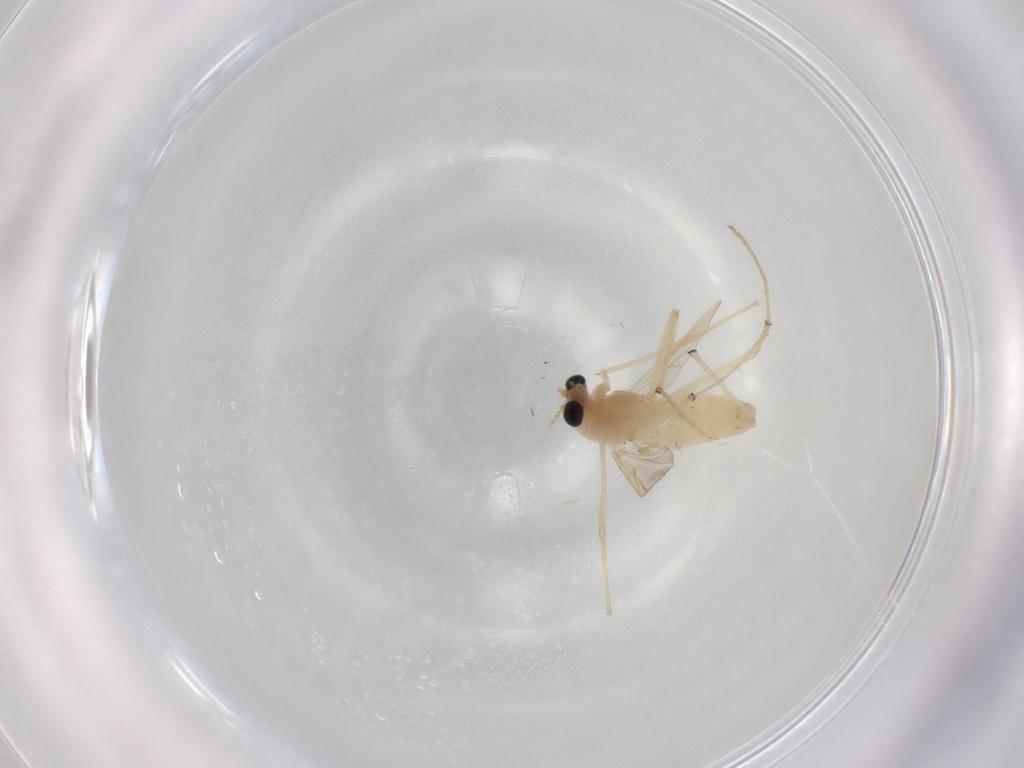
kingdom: Animalia
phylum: Arthropoda
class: Insecta
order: Diptera
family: Chironomidae
